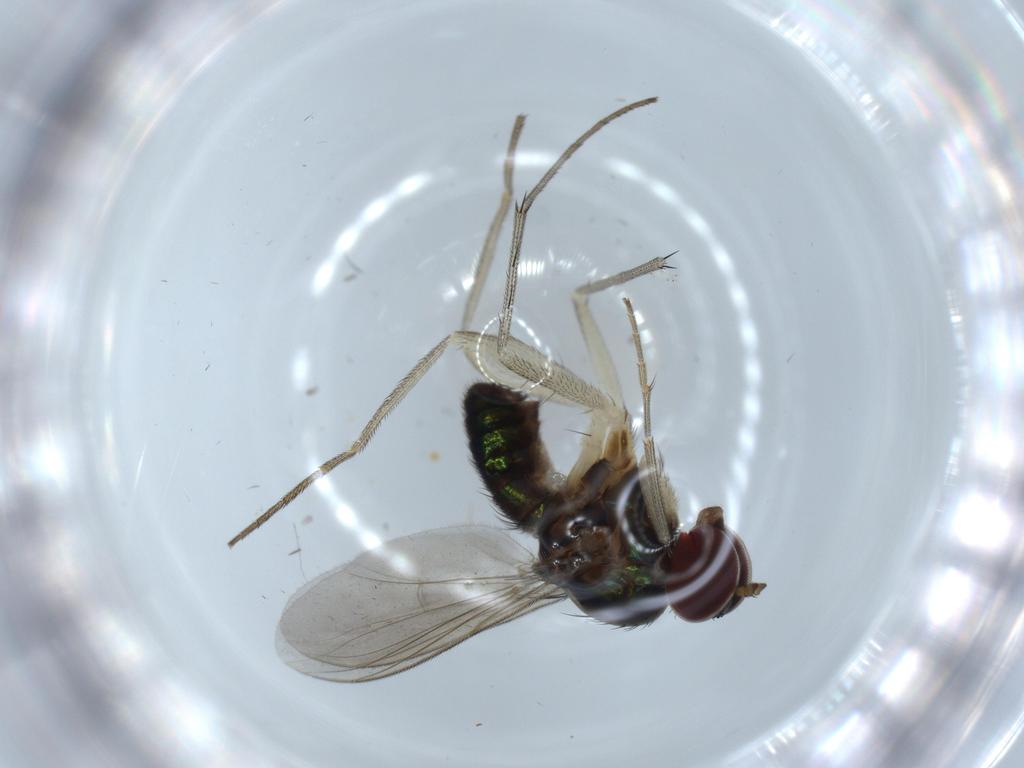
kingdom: Animalia
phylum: Arthropoda
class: Insecta
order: Diptera
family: Dolichopodidae
